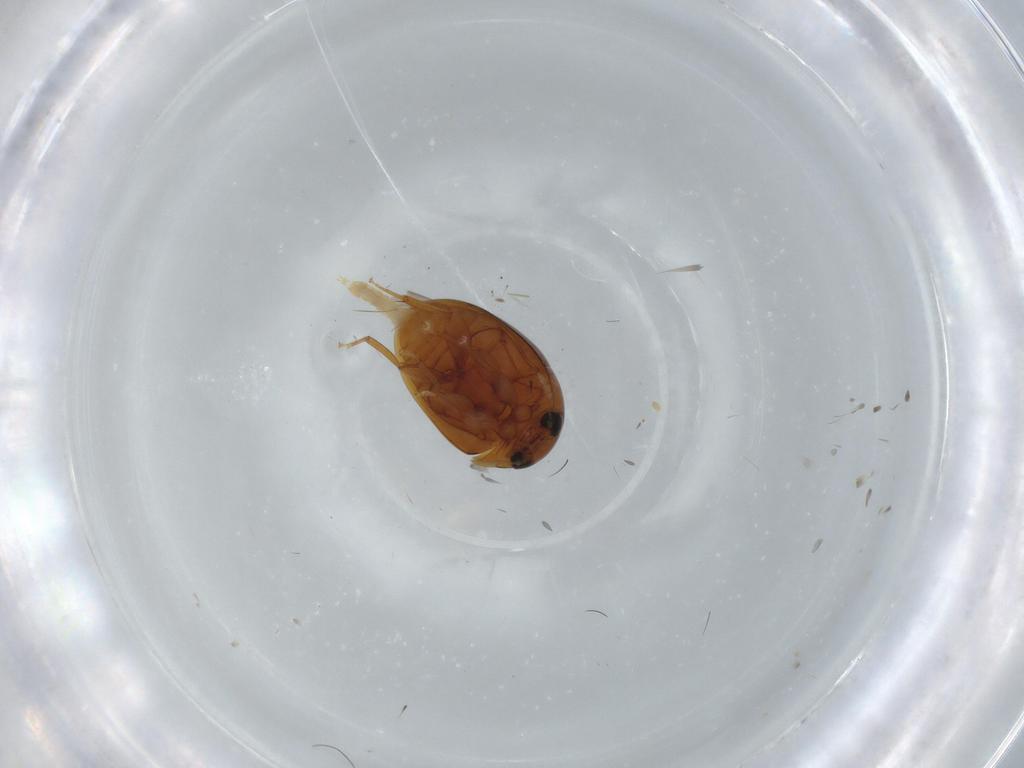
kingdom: Animalia
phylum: Arthropoda
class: Insecta
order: Coleoptera
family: Phalacridae
